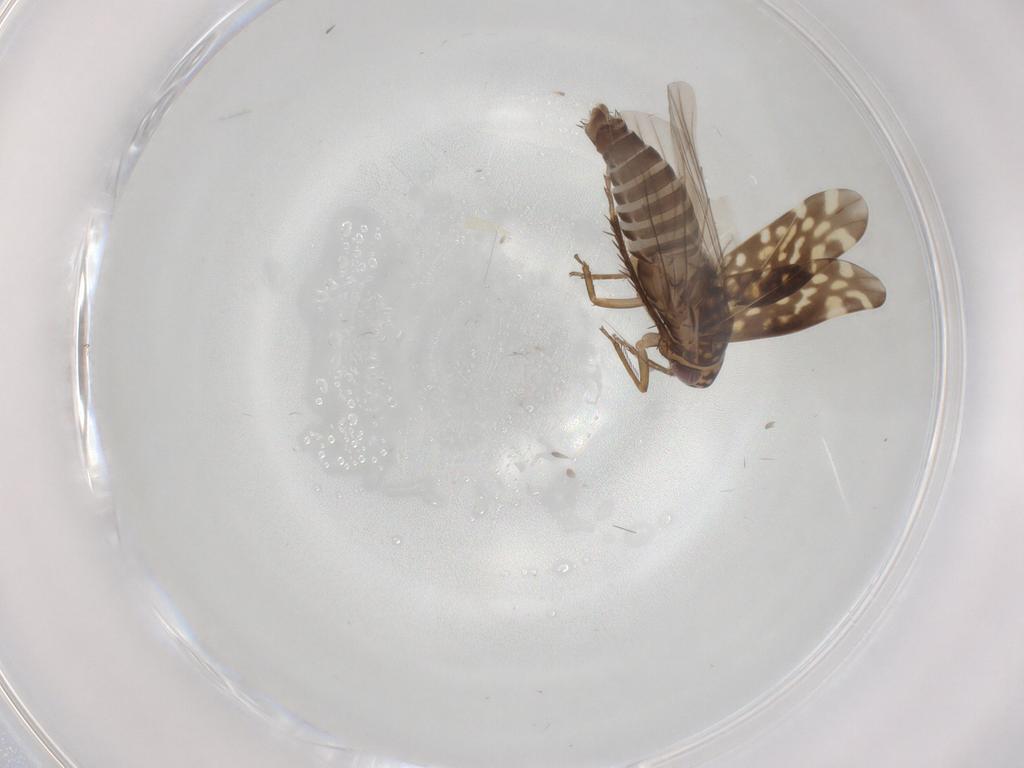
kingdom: Animalia
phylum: Arthropoda
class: Insecta
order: Hemiptera
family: Cicadellidae
